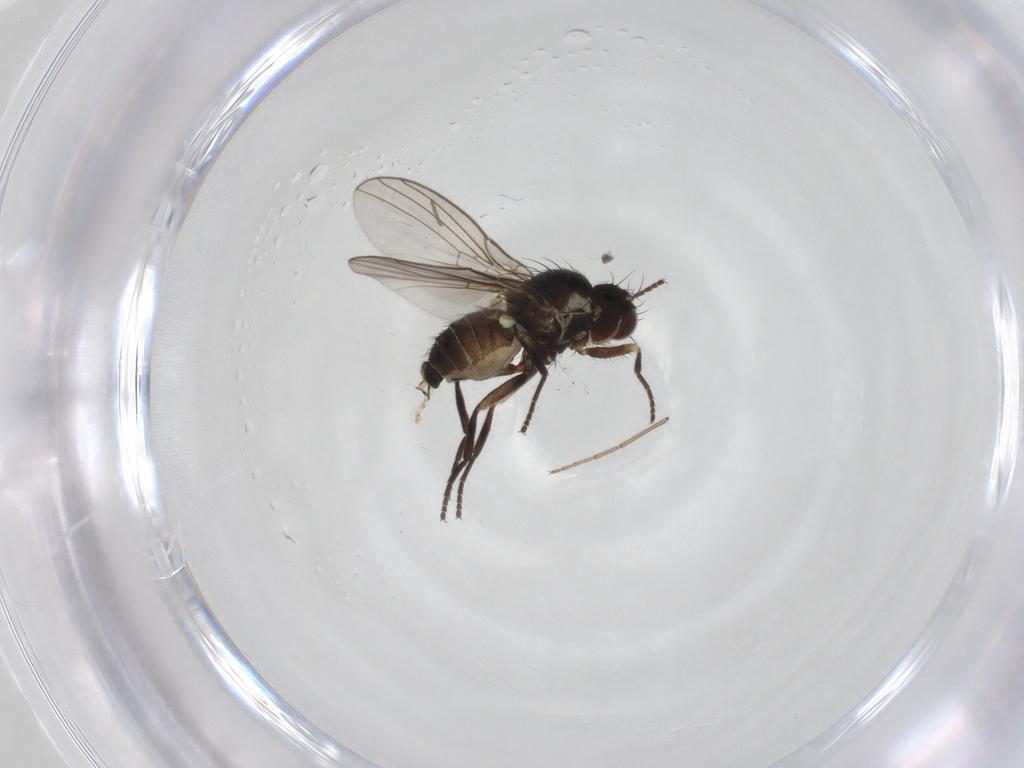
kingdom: Animalia
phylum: Arthropoda
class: Insecta
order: Diptera
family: Agromyzidae
